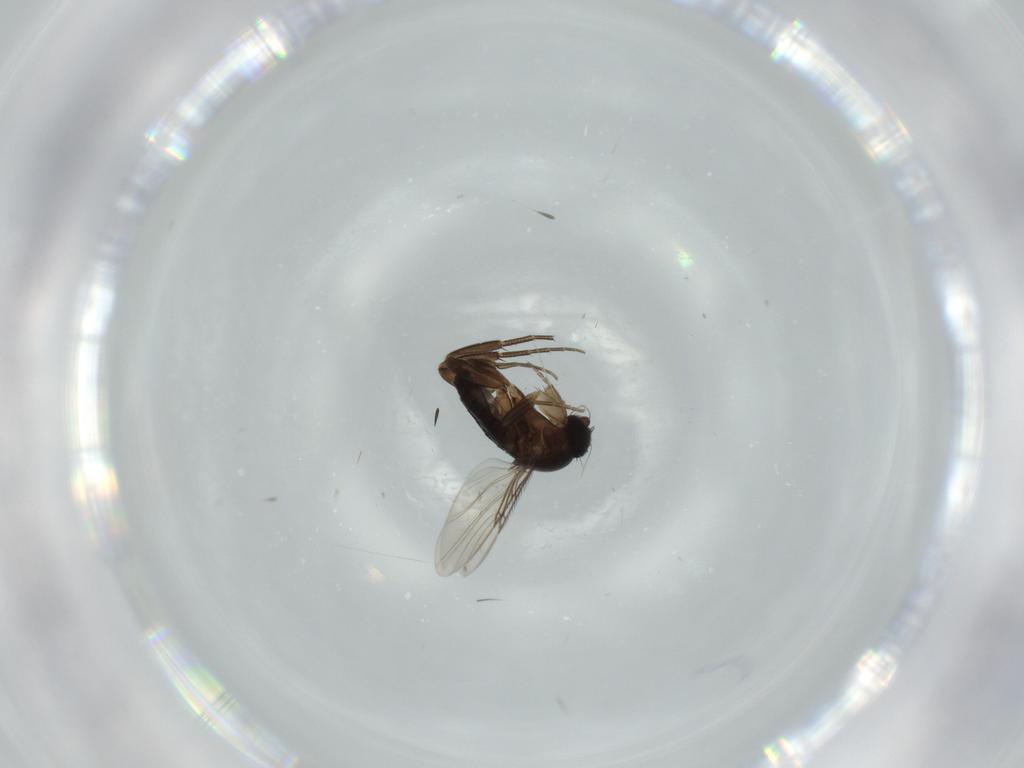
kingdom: Animalia
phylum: Arthropoda
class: Insecta
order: Diptera
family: Phoridae
